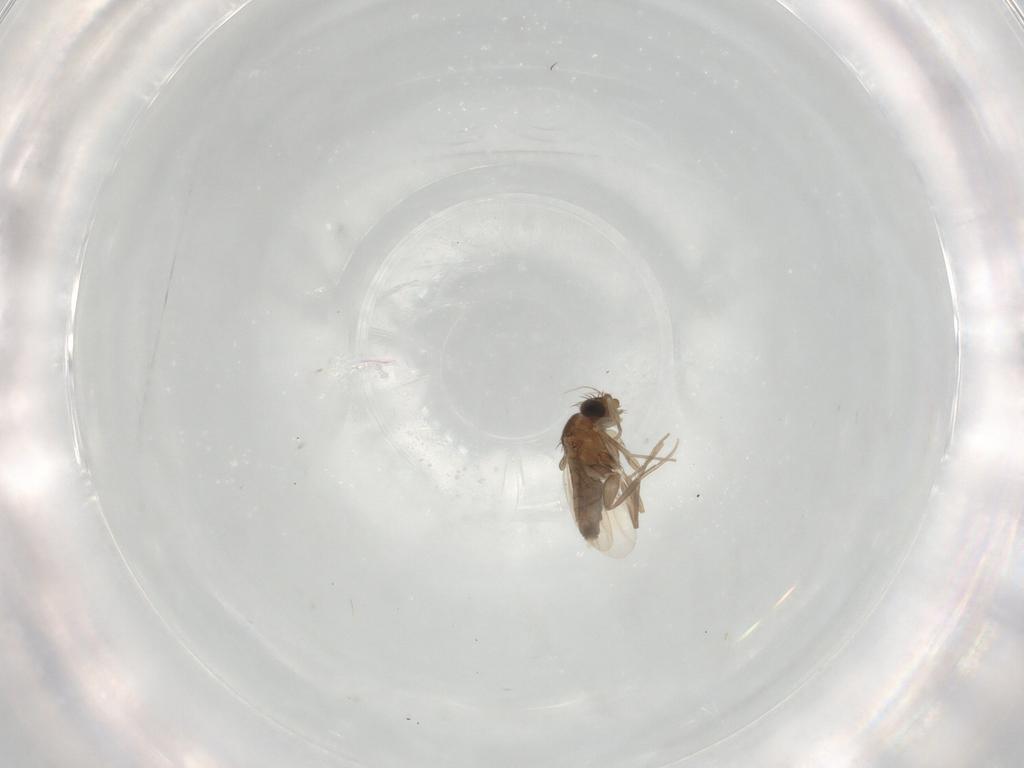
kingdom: Animalia
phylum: Arthropoda
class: Insecta
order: Diptera
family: Phoridae
